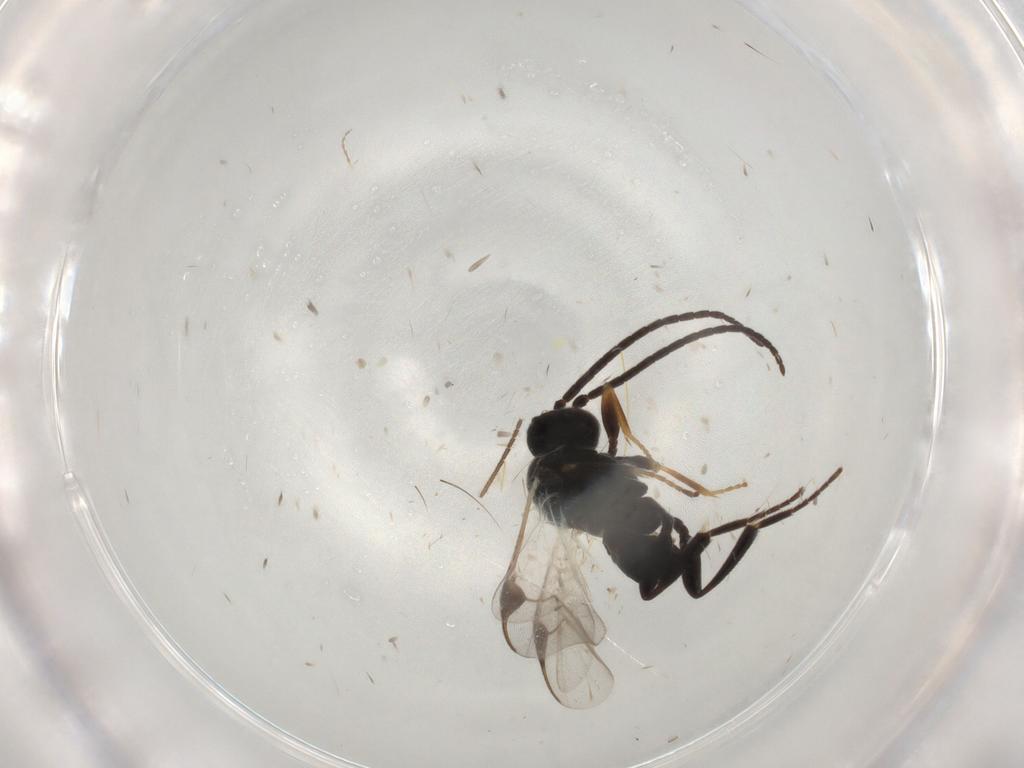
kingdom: Animalia
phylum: Arthropoda
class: Insecta
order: Hymenoptera
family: Braconidae
